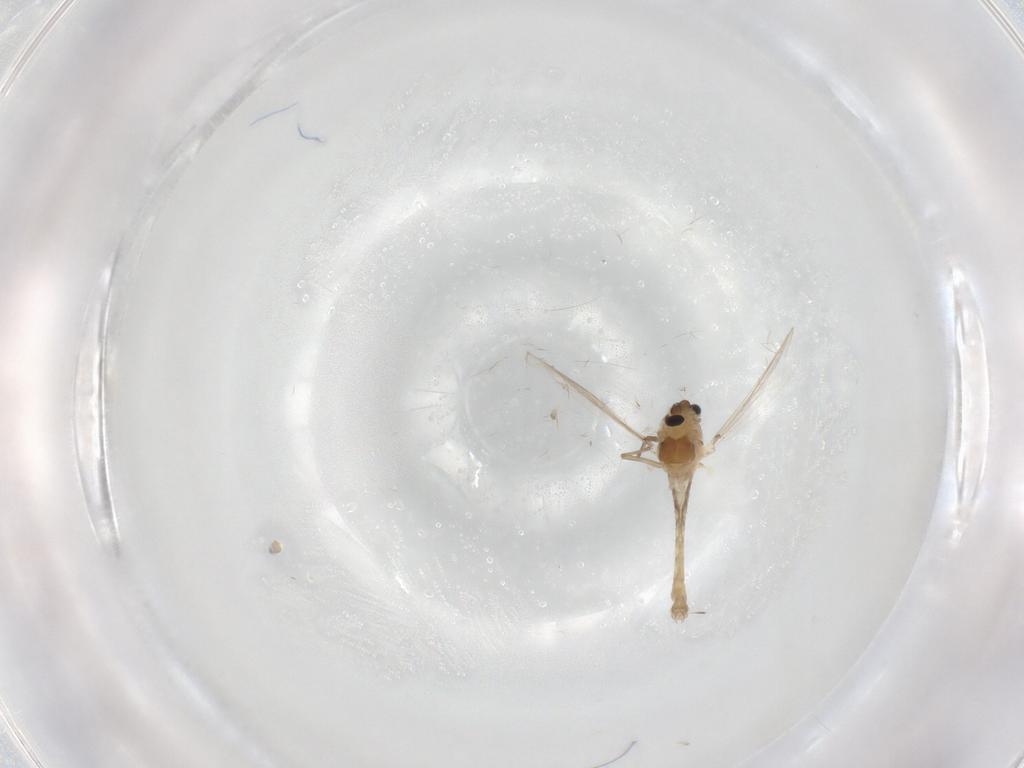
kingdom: Animalia
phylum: Arthropoda
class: Insecta
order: Diptera
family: Chironomidae
